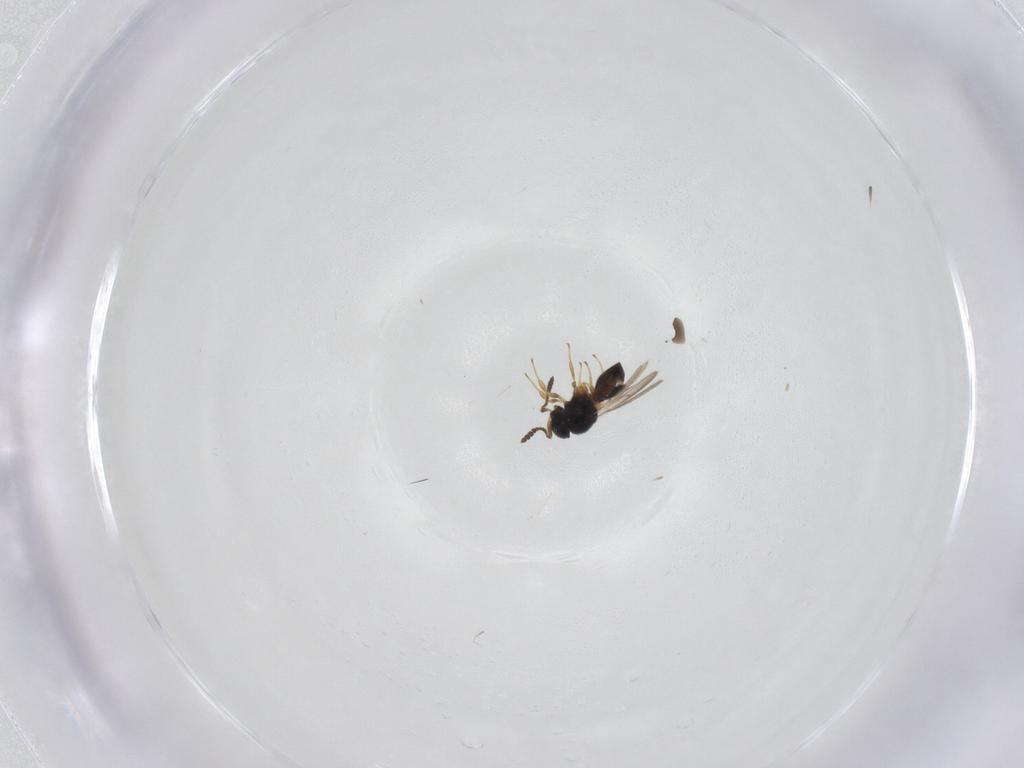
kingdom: Animalia
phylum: Arthropoda
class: Insecta
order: Hymenoptera
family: Scelionidae
